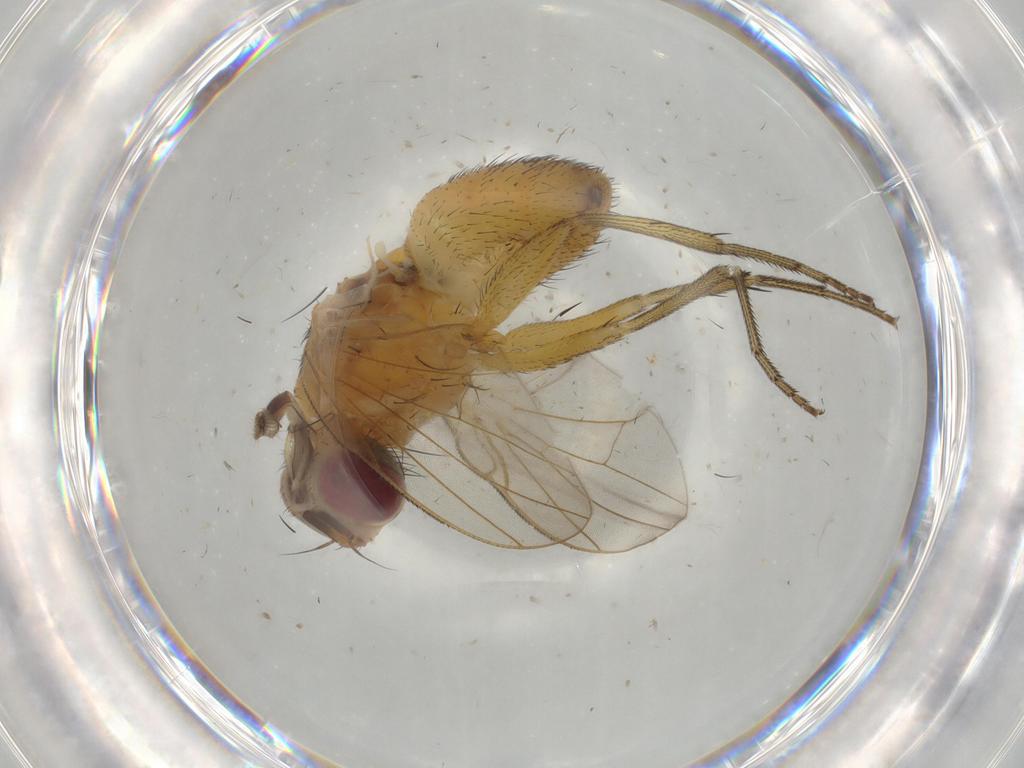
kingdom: Animalia
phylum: Arthropoda
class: Insecta
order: Diptera
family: Muscidae
